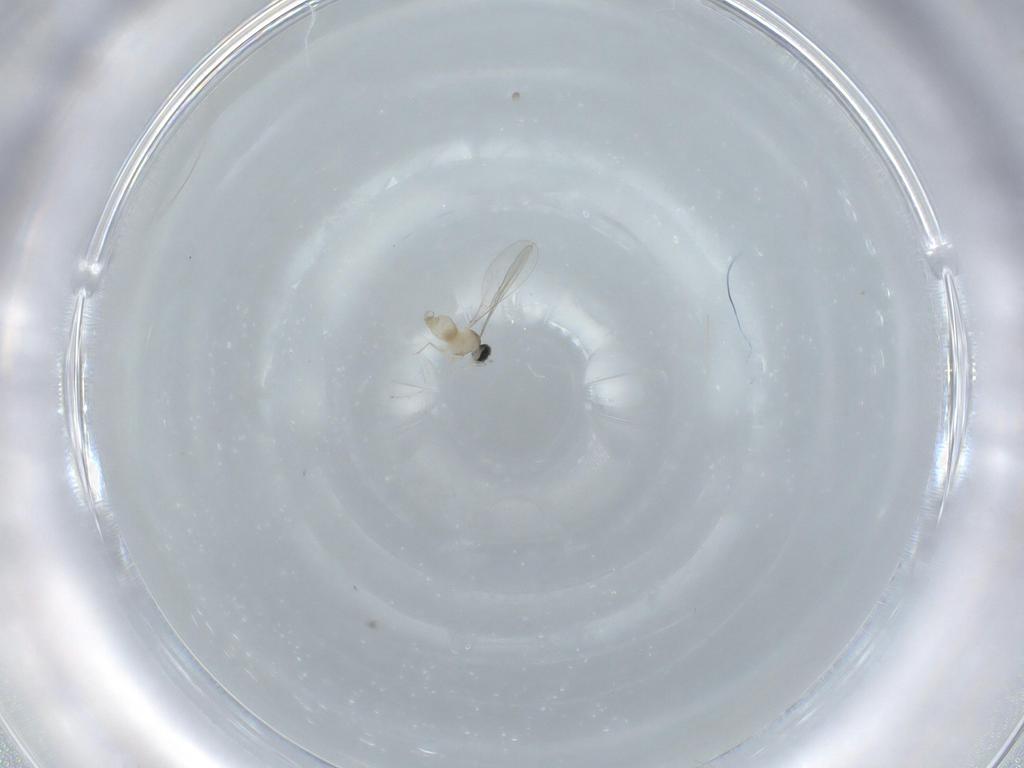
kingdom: Animalia
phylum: Arthropoda
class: Insecta
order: Diptera
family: Cecidomyiidae
